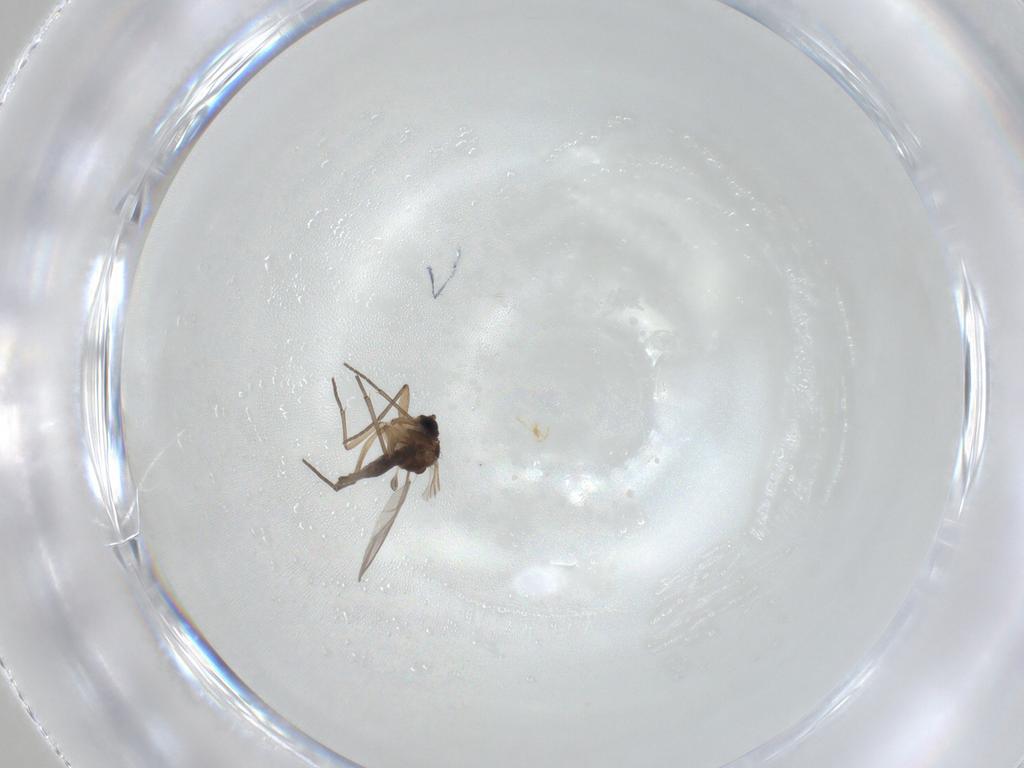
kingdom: Animalia
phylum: Arthropoda
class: Insecta
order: Diptera
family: Sciaridae
